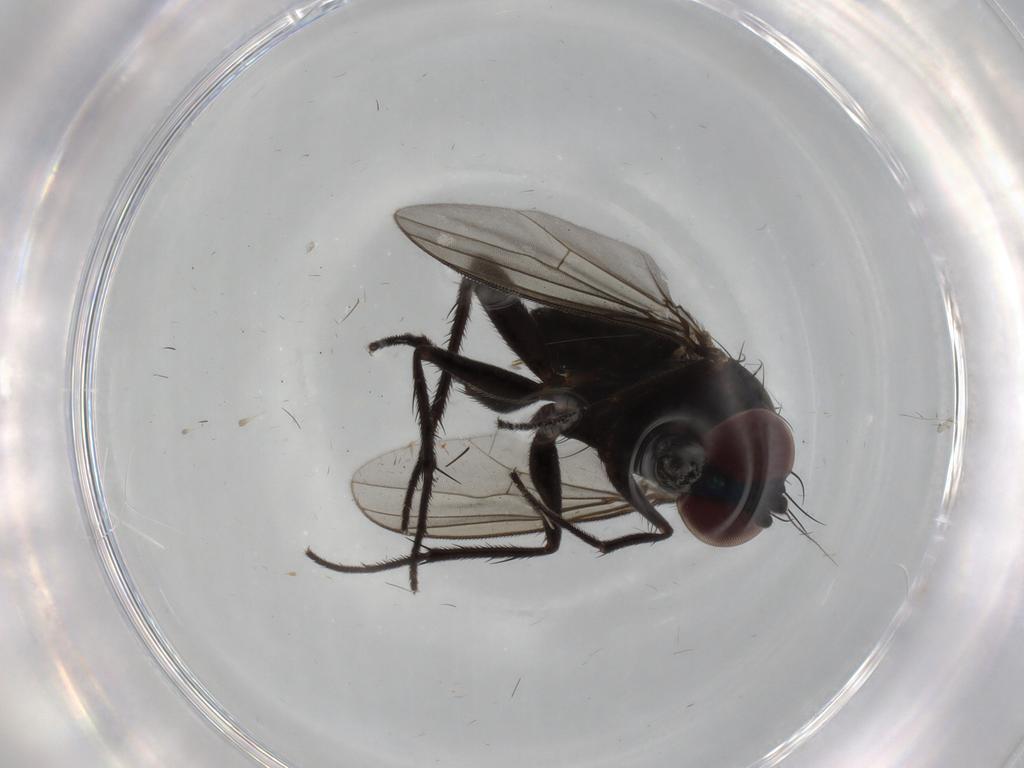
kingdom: Animalia
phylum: Arthropoda
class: Insecta
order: Diptera
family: Dolichopodidae
